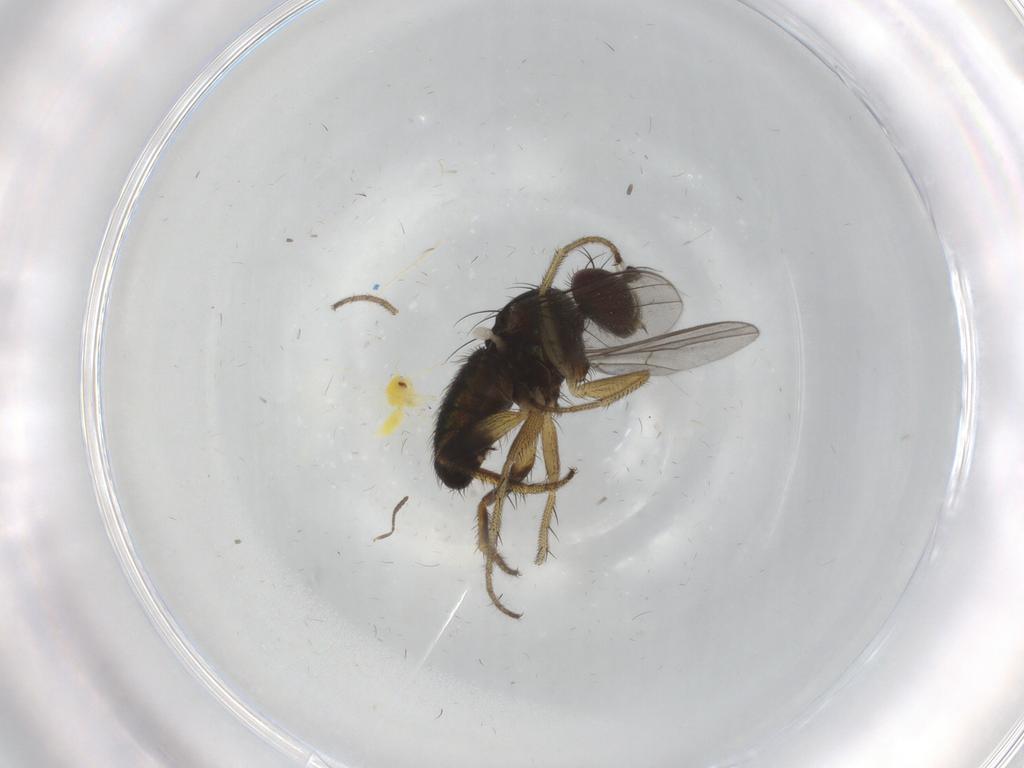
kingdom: Animalia
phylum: Arthropoda
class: Insecta
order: Diptera
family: Dolichopodidae
